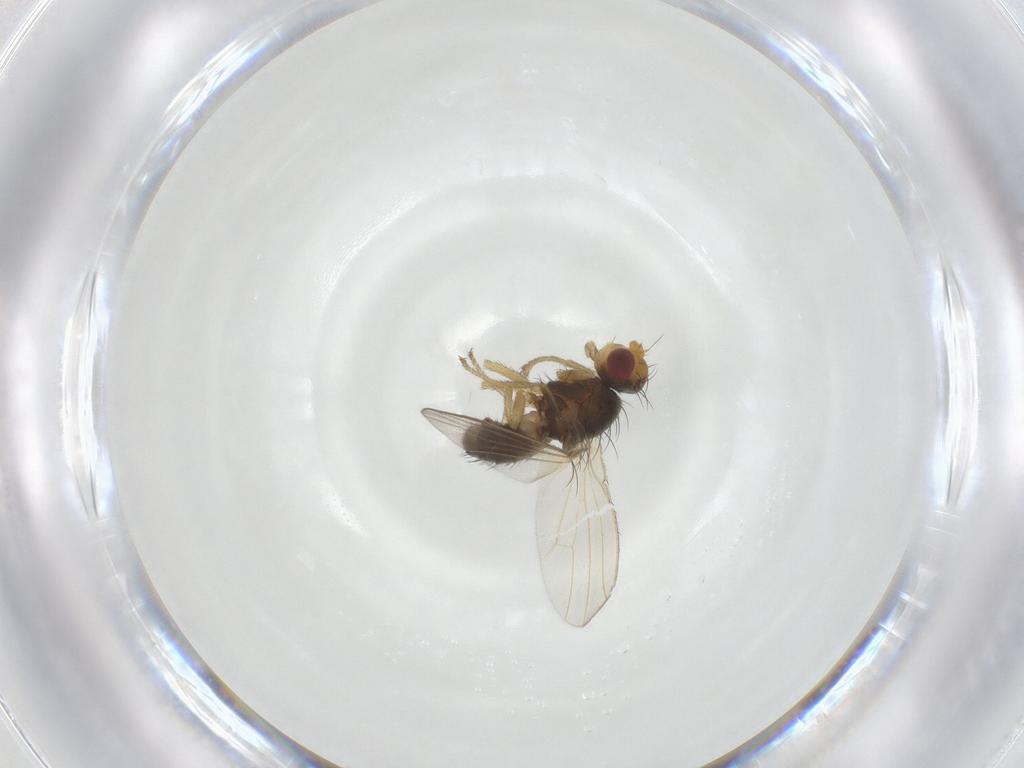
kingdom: Animalia
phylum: Arthropoda
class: Insecta
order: Diptera
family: Heleomyzidae
